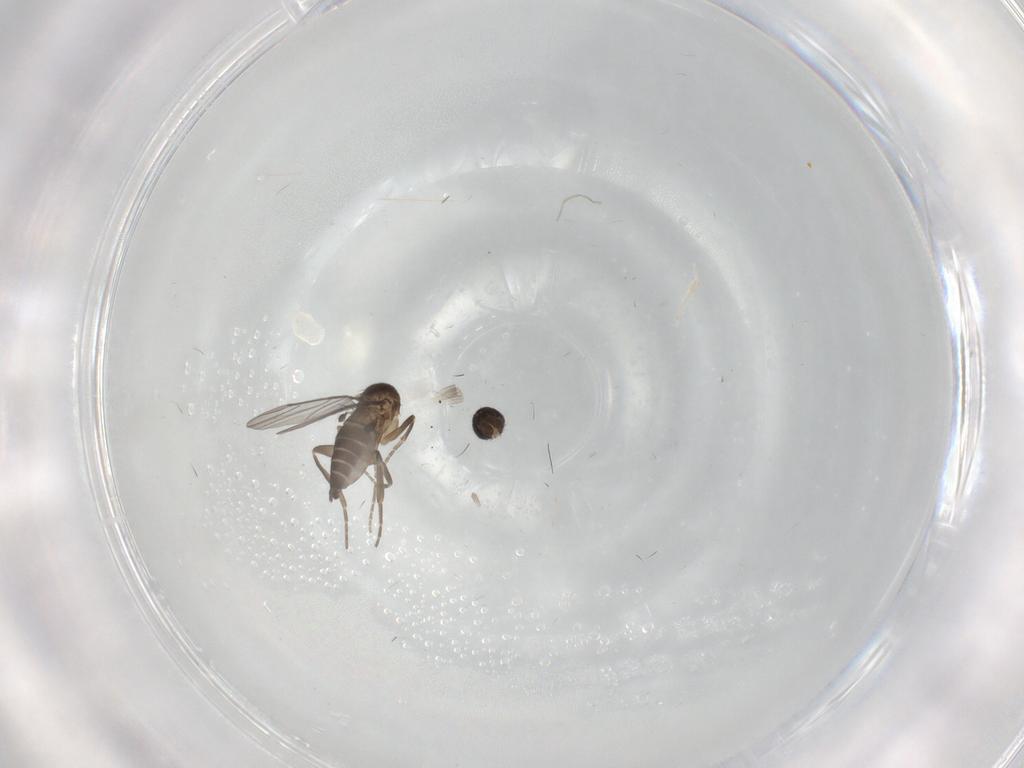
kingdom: Animalia
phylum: Arthropoda
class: Insecta
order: Diptera
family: Phoridae
